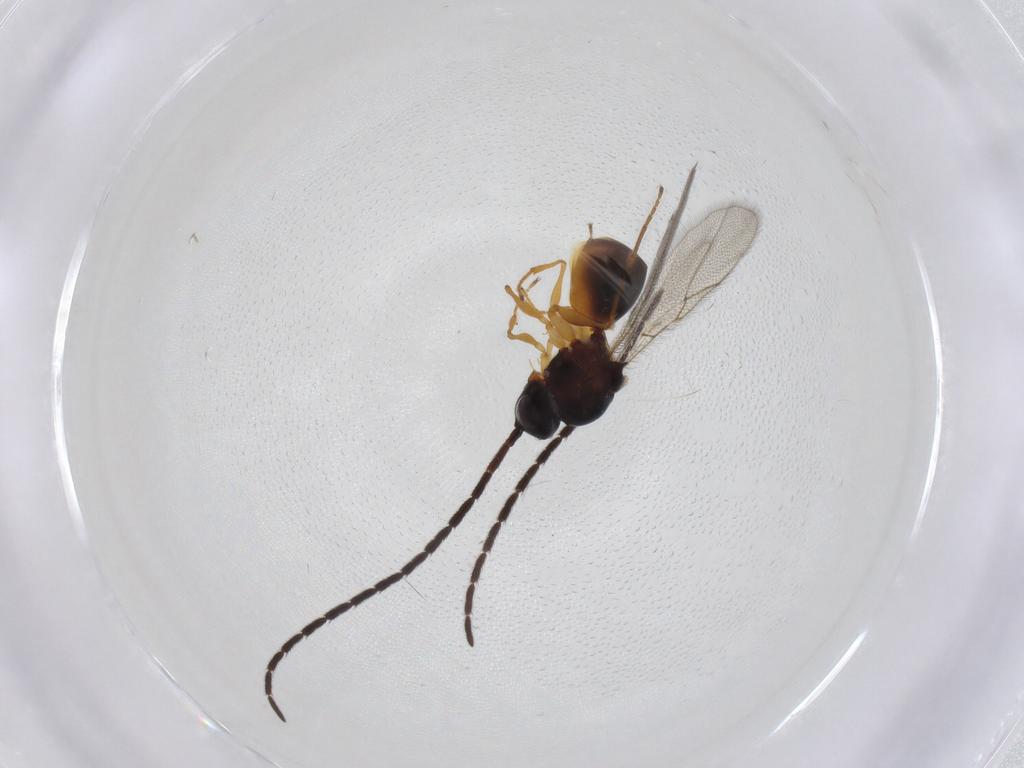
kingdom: Animalia
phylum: Arthropoda
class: Insecta
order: Hymenoptera
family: Figitidae
